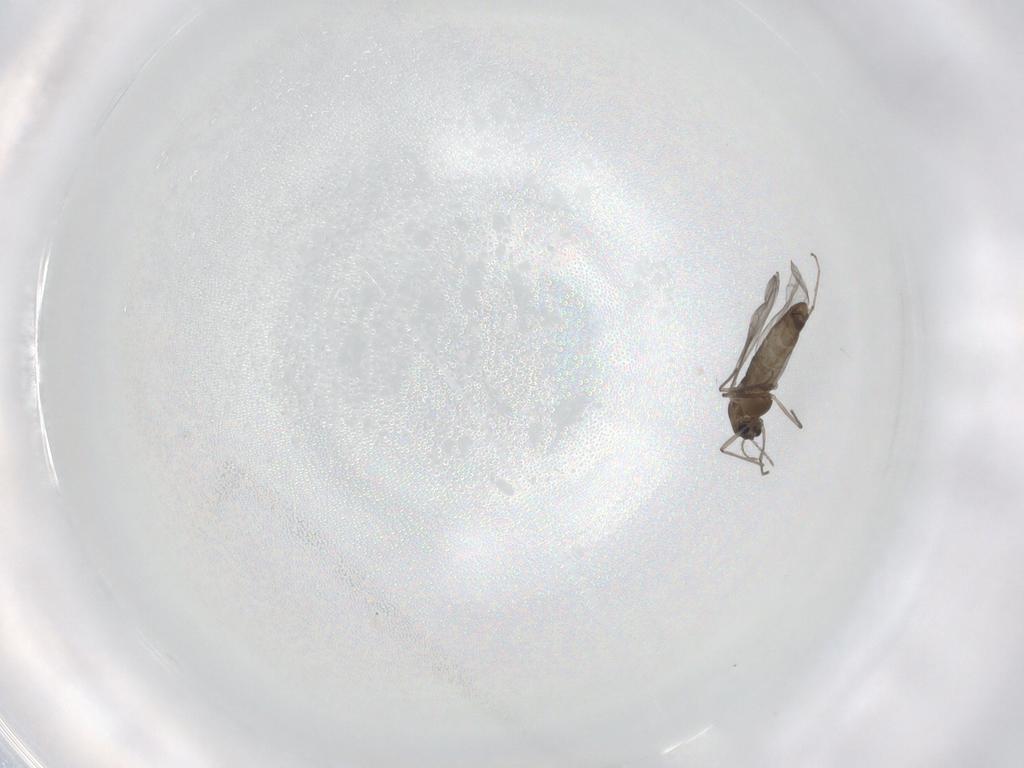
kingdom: Animalia
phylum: Arthropoda
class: Insecta
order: Diptera
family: Chironomidae
